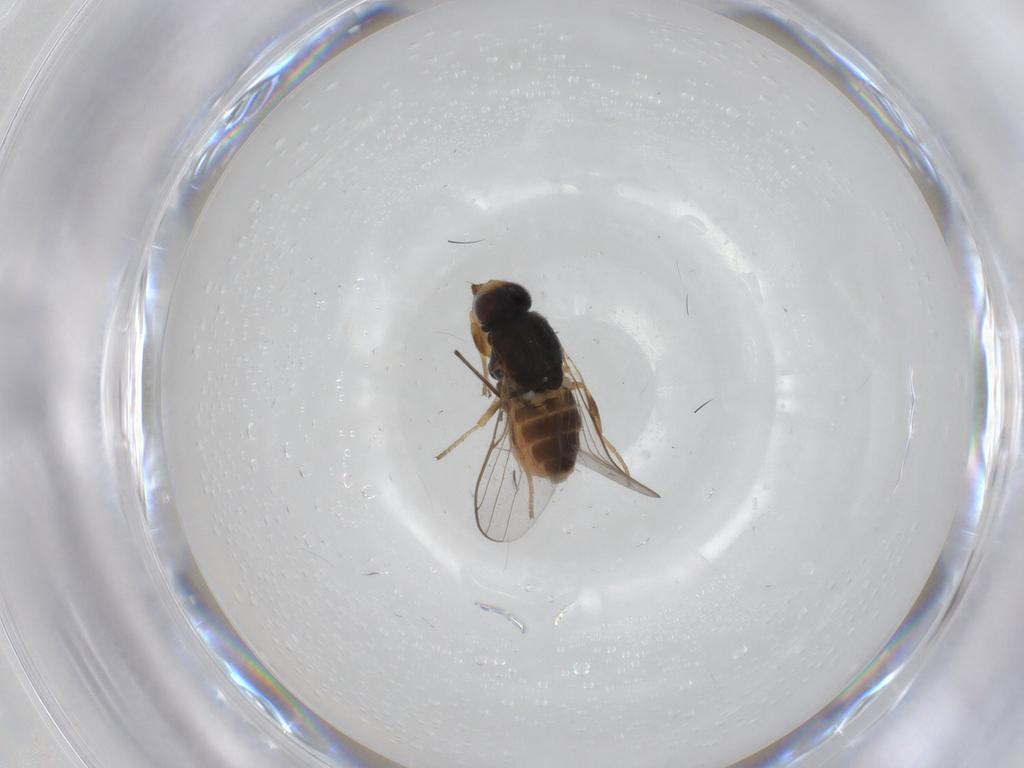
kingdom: Animalia
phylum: Arthropoda
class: Insecta
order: Diptera
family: Chloropidae
